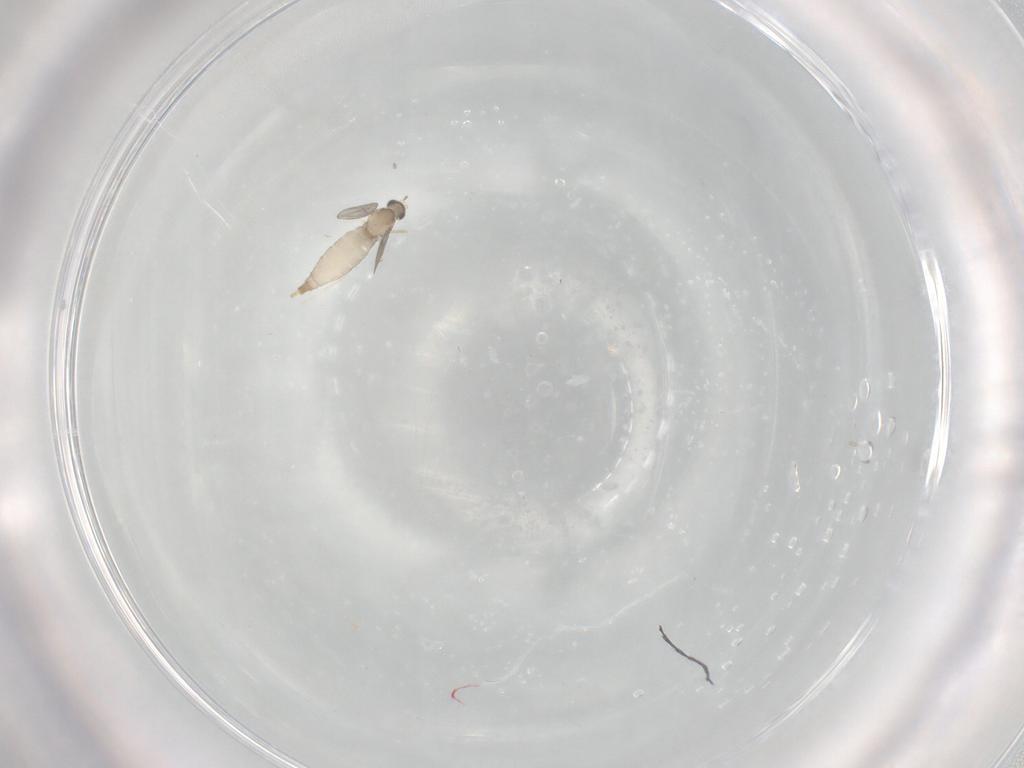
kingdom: Animalia
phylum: Arthropoda
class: Insecta
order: Diptera
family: Cecidomyiidae
